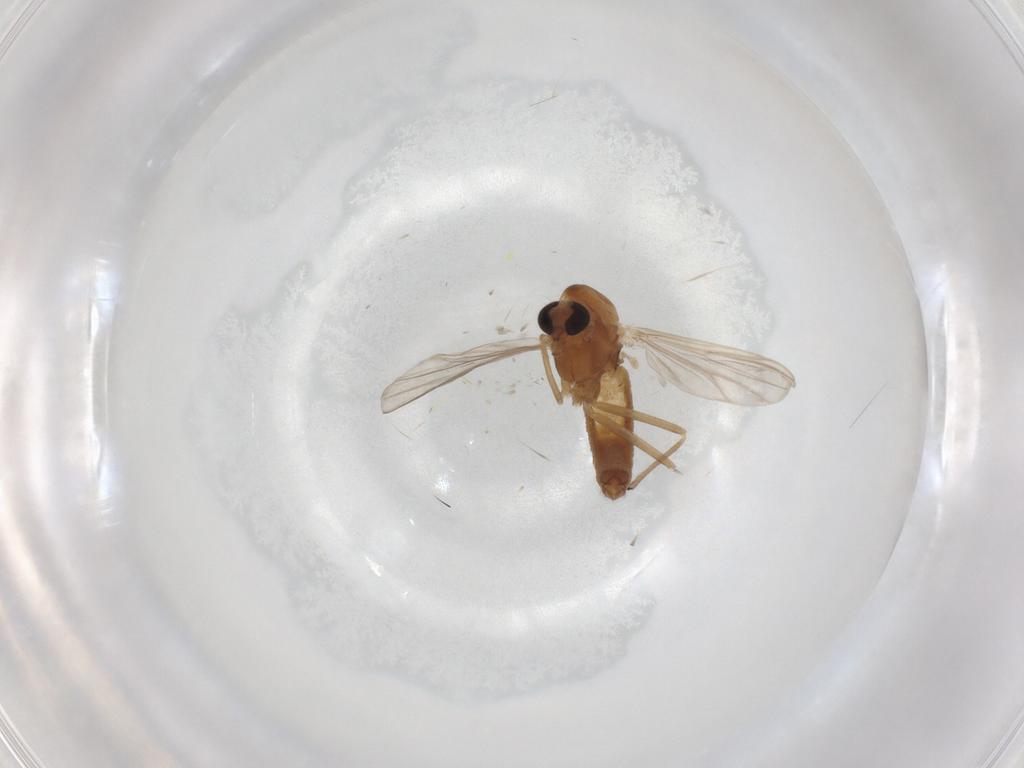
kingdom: Animalia
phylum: Arthropoda
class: Insecta
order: Diptera
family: Chironomidae
